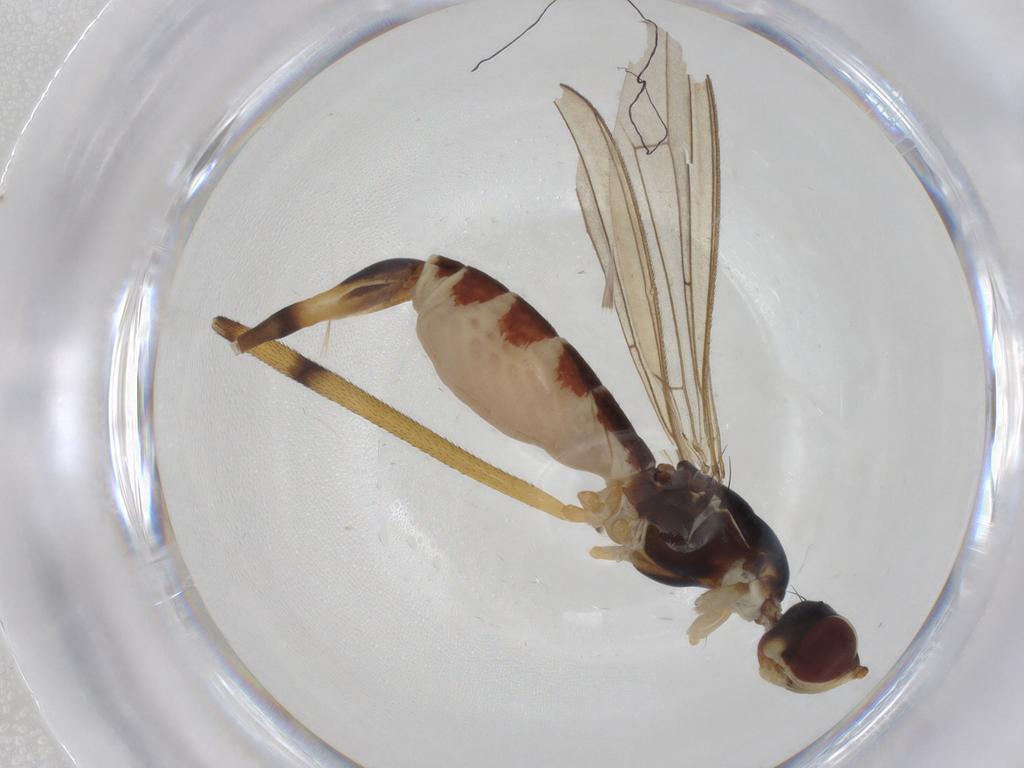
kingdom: Animalia
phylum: Arthropoda
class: Insecta
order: Diptera
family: Micropezidae
